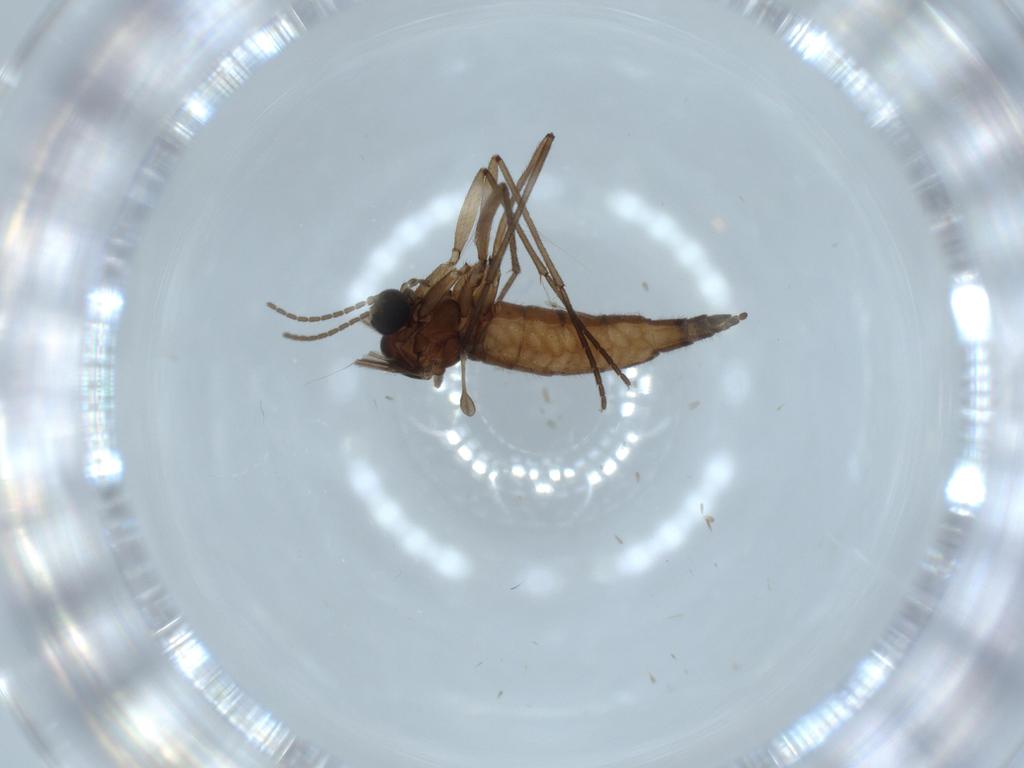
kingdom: Animalia
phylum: Arthropoda
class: Insecta
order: Diptera
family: Sciaridae
